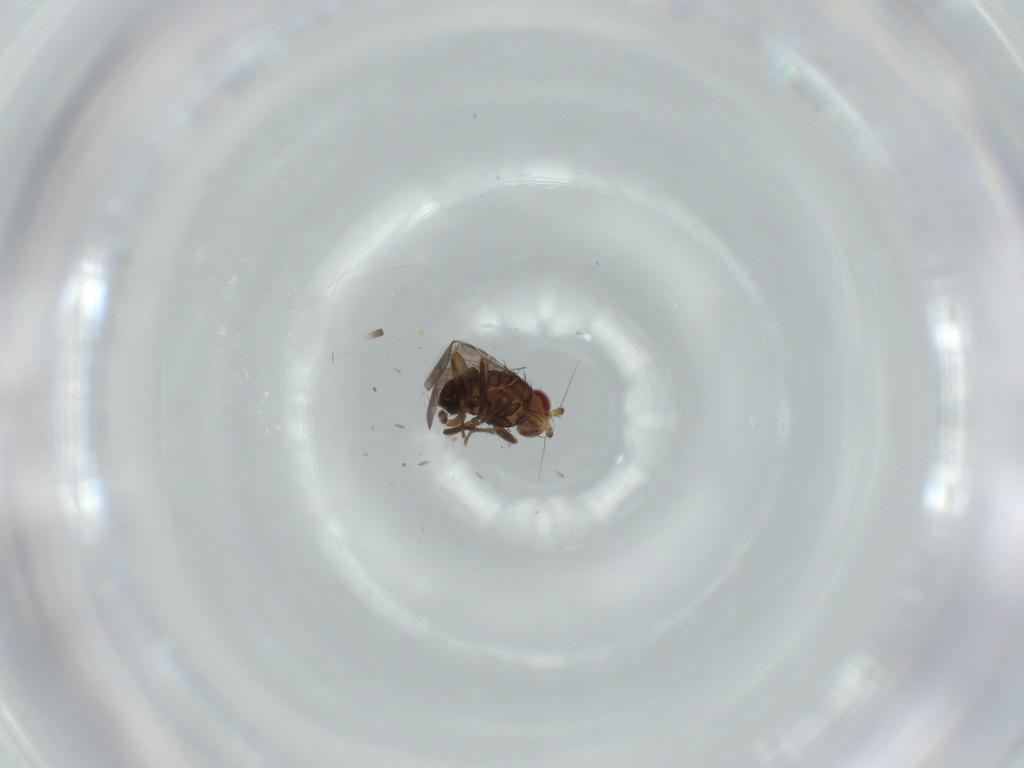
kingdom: Animalia
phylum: Arthropoda
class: Insecta
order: Diptera
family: Sphaeroceridae
